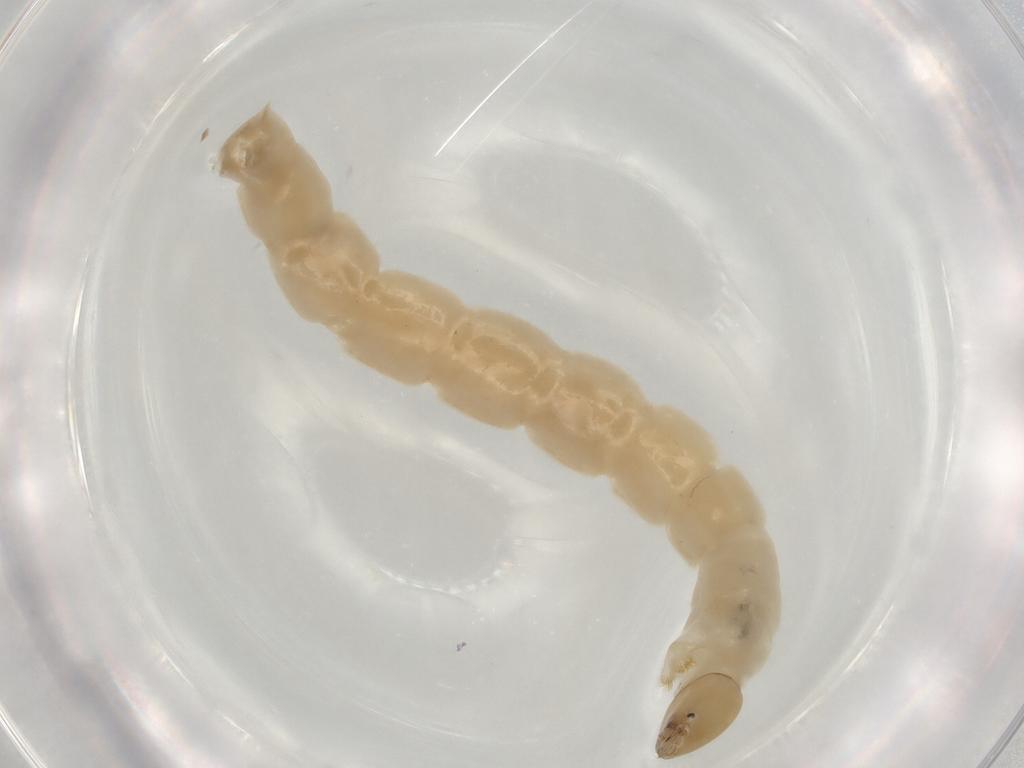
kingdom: Animalia
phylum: Arthropoda
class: Insecta
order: Diptera
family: Chironomidae
